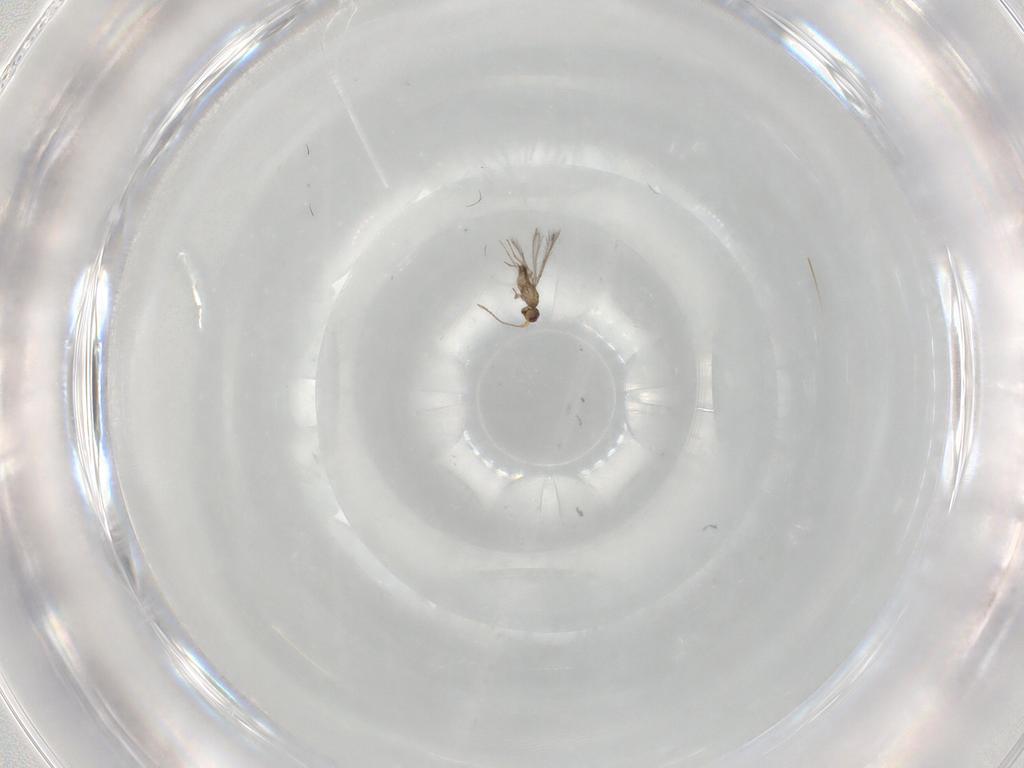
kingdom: Animalia
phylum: Arthropoda
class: Insecta
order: Hymenoptera
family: Mymaridae
